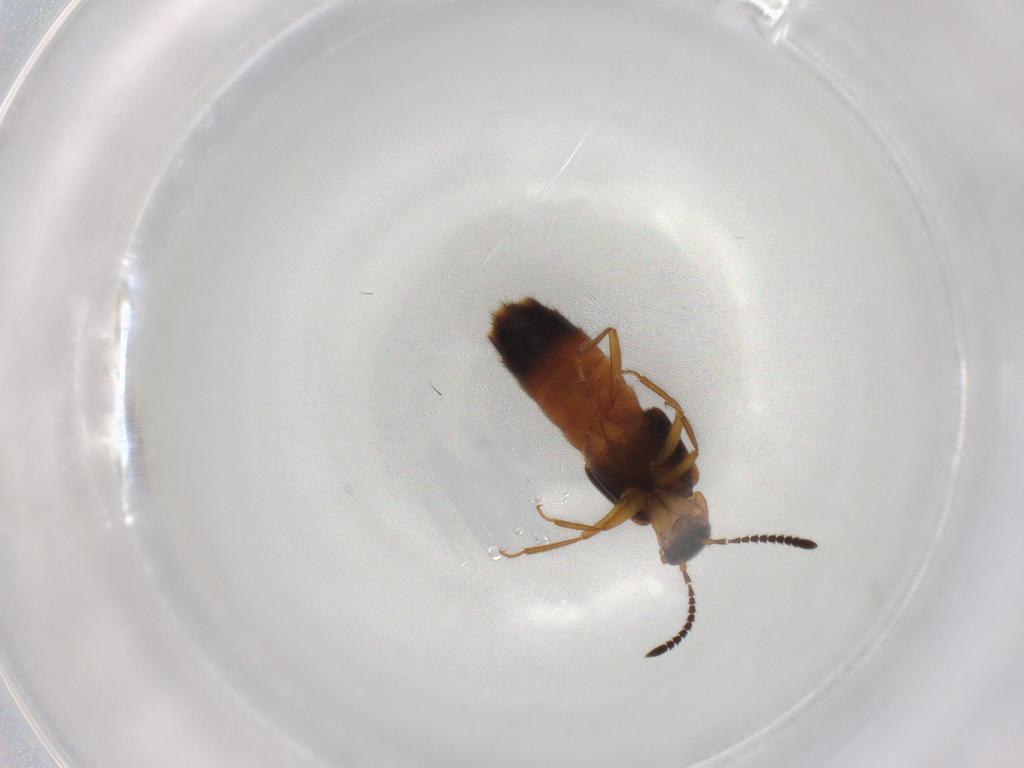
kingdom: Animalia
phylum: Arthropoda
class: Insecta
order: Coleoptera
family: Staphylinidae
